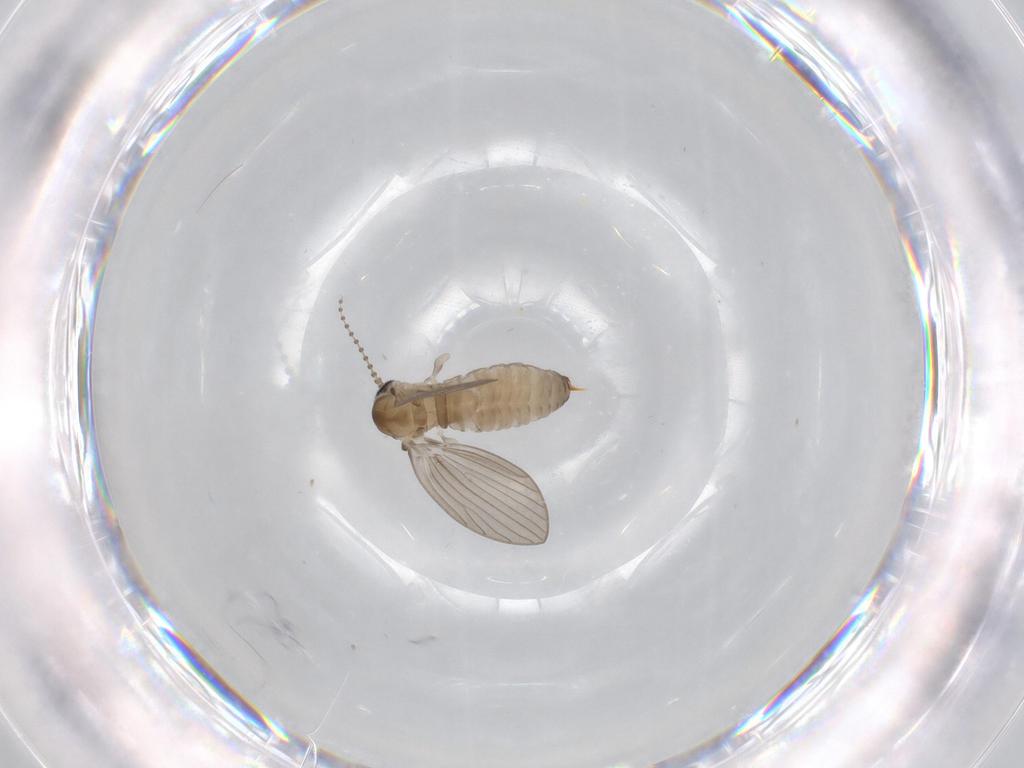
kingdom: Animalia
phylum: Arthropoda
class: Insecta
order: Diptera
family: Psychodidae
